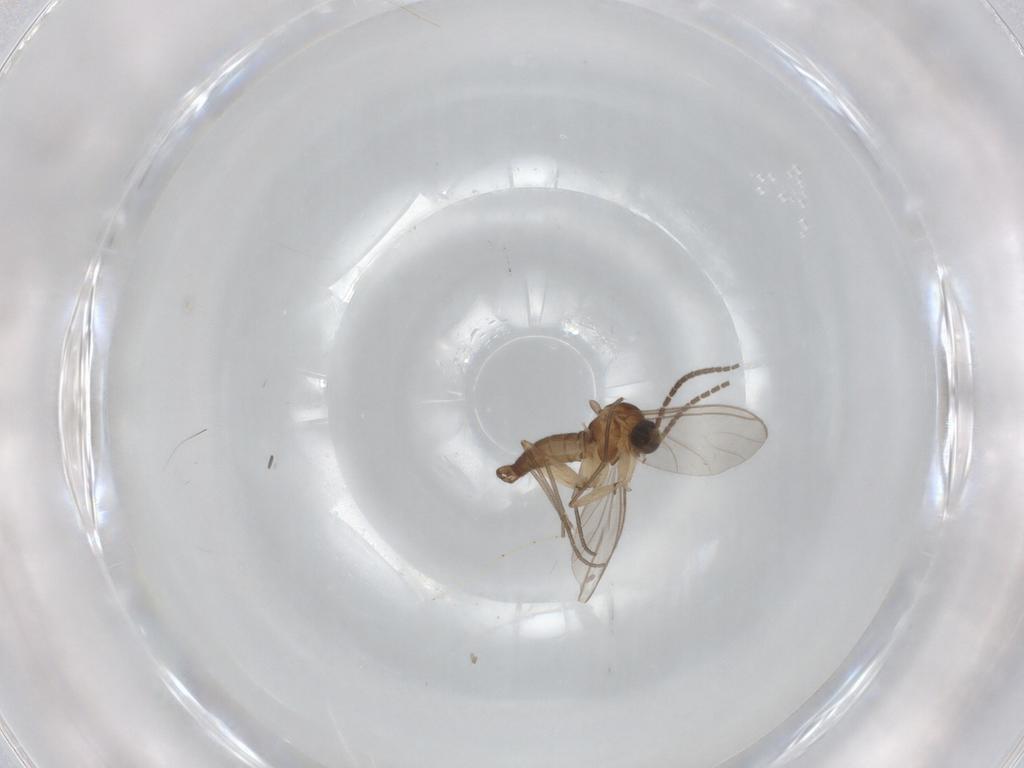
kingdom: Animalia
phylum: Arthropoda
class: Insecta
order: Diptera
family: Sciaridae
